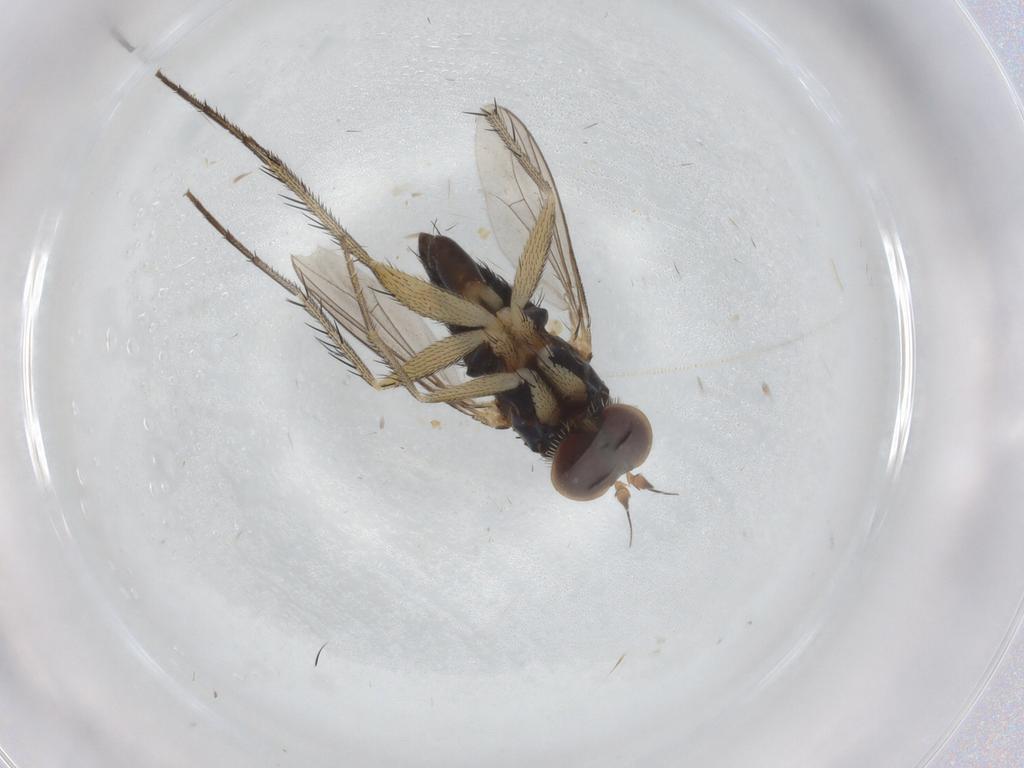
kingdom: Animalia
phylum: Arthropoda
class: Insecta
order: Diptera
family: Dolichopodidae
